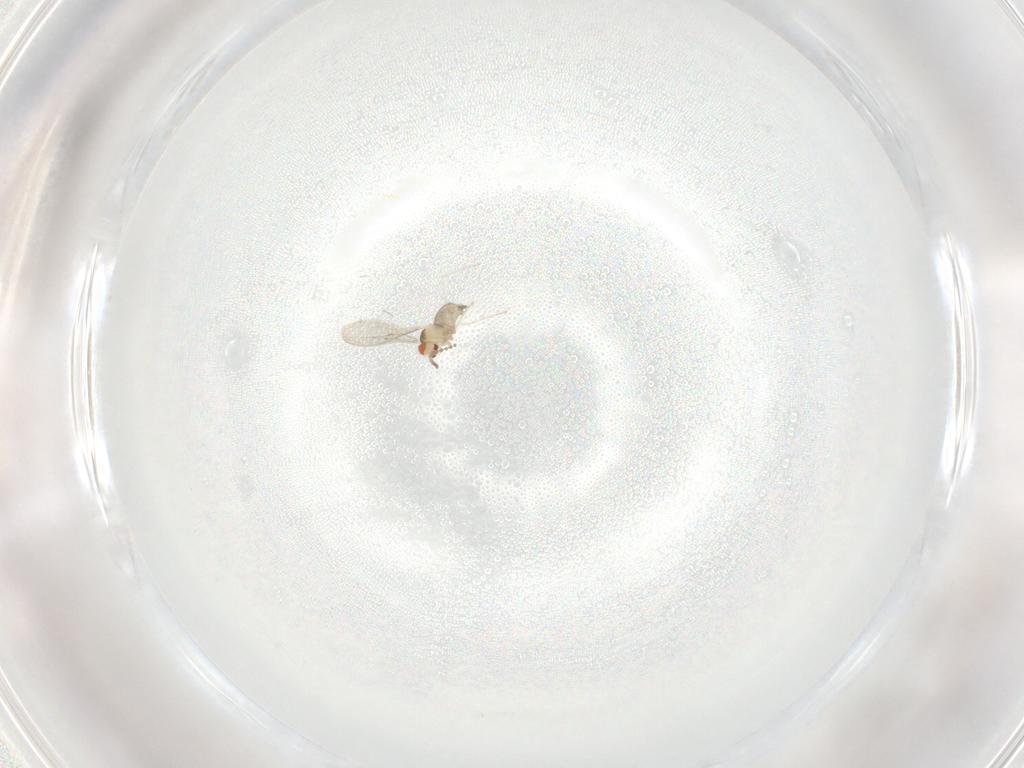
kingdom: Animalia
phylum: Arthropoda
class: Insecta
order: Diptera
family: Cecidomyiidae
